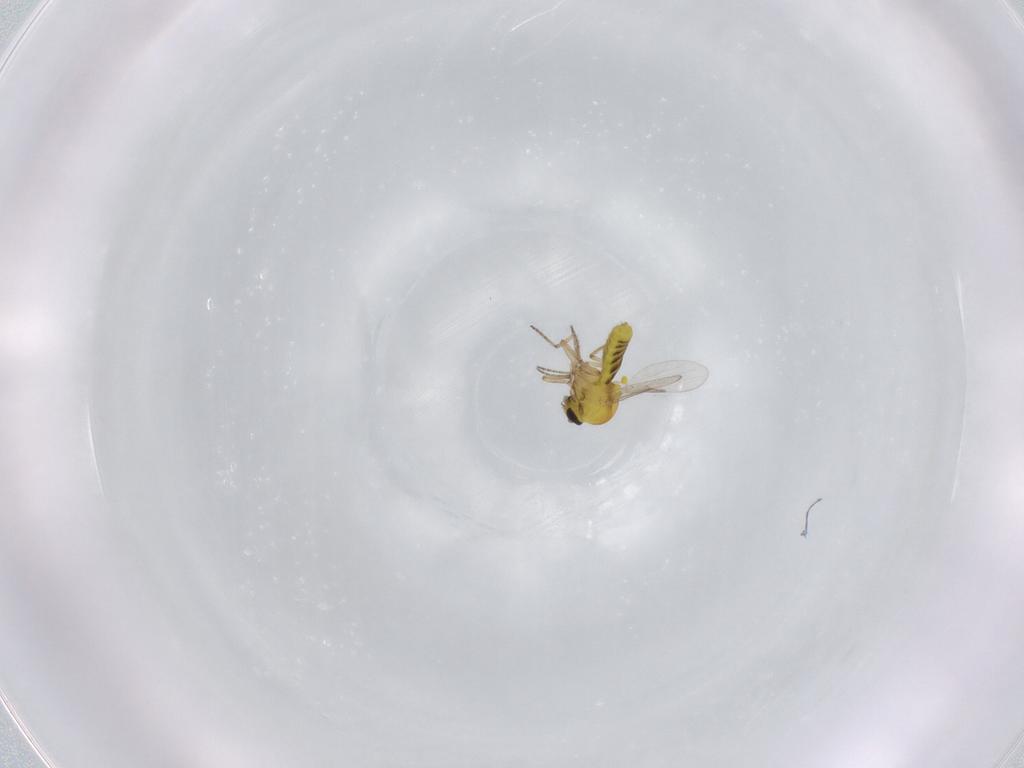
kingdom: Animalia
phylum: Arthropoda
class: Insecta
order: Diptera
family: Ceratopogonidae
